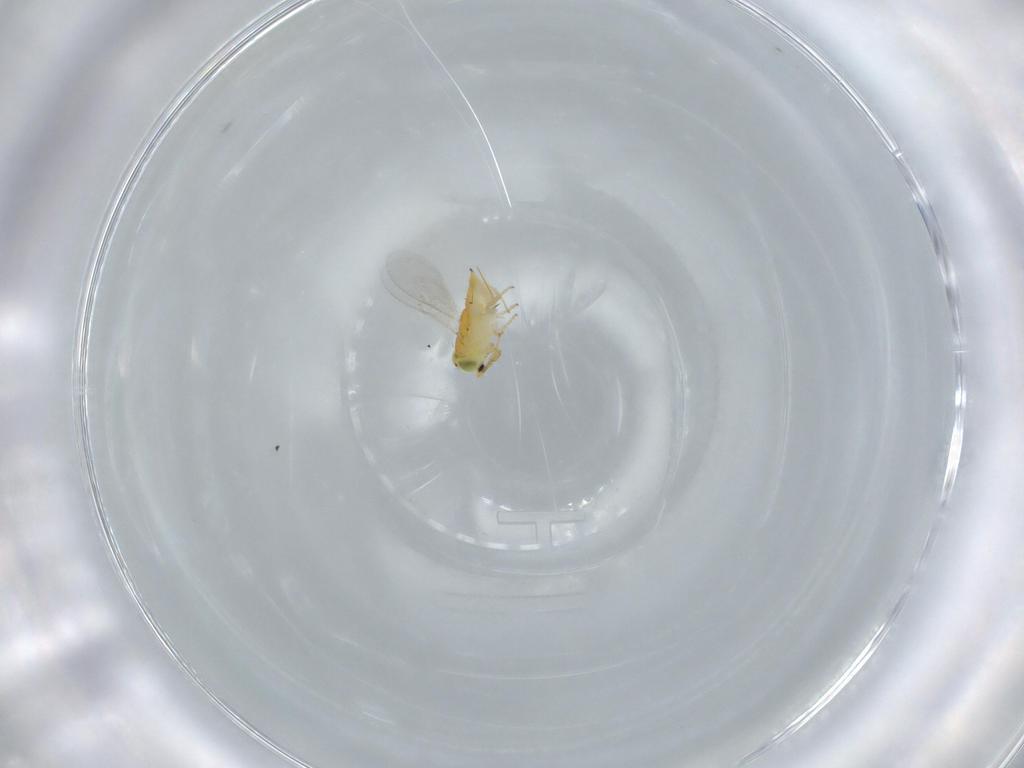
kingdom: Animalia
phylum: Arthropoda
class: Insecta
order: Hymenoptera
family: Encyrtidae
